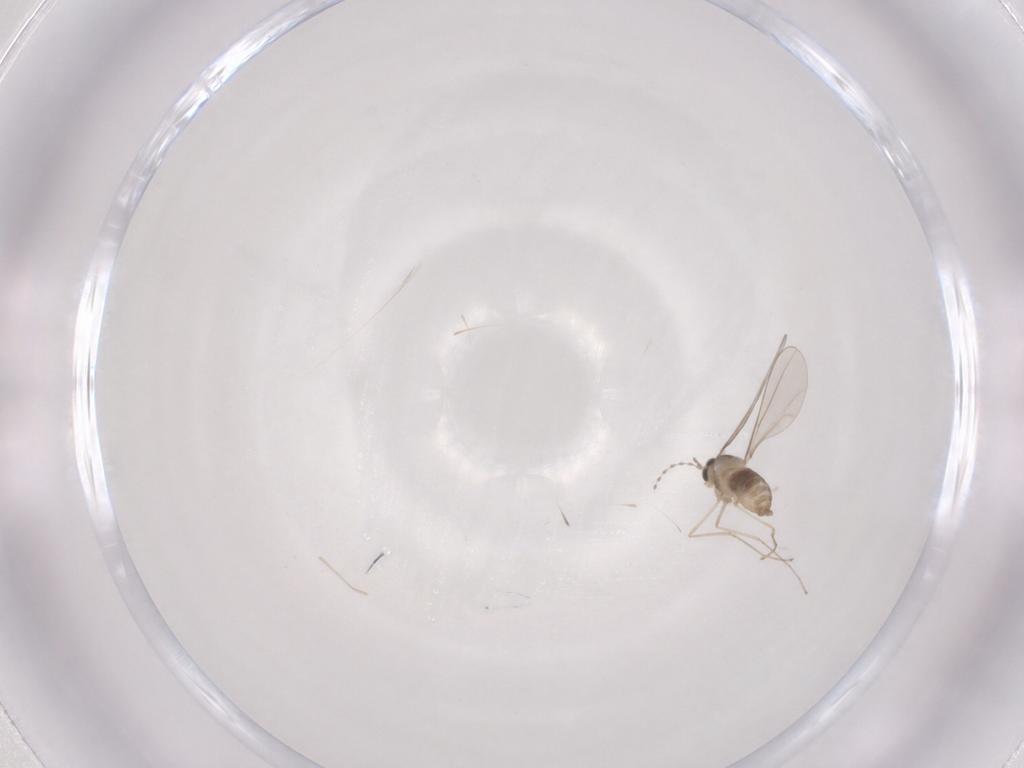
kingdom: Animalia
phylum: Arthropoda
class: Insecta
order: Diptera
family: Cecidomyiidae
